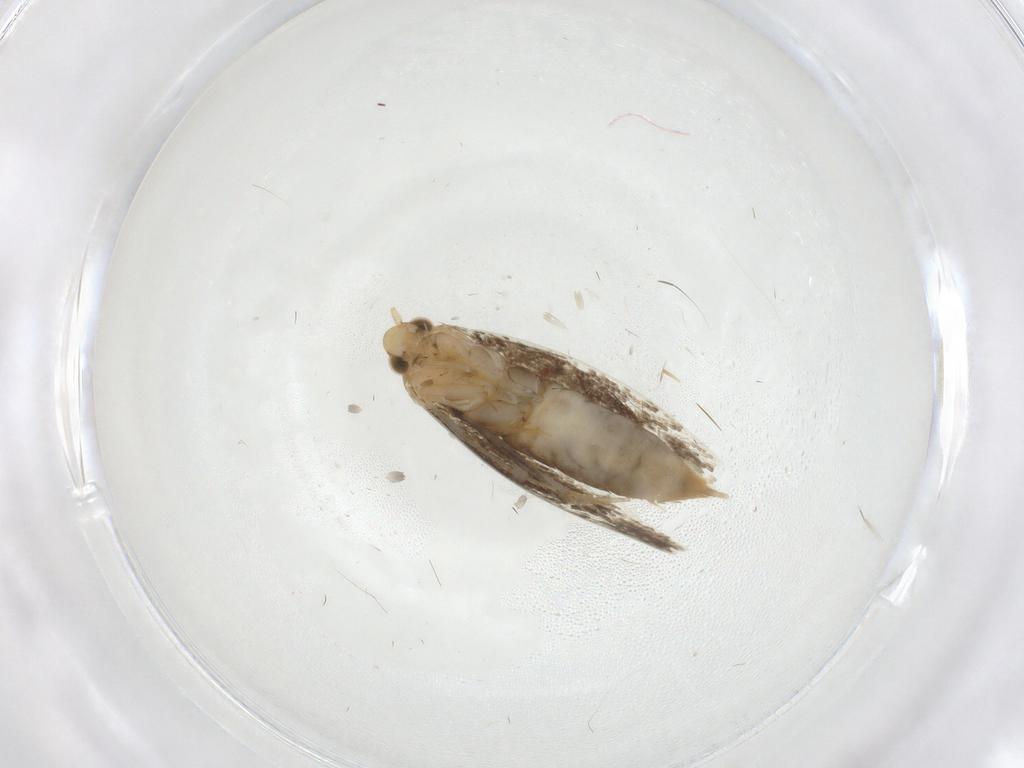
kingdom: Animalia
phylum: Arthropoda
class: Insecta
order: Lepidoptera
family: Tineidae
